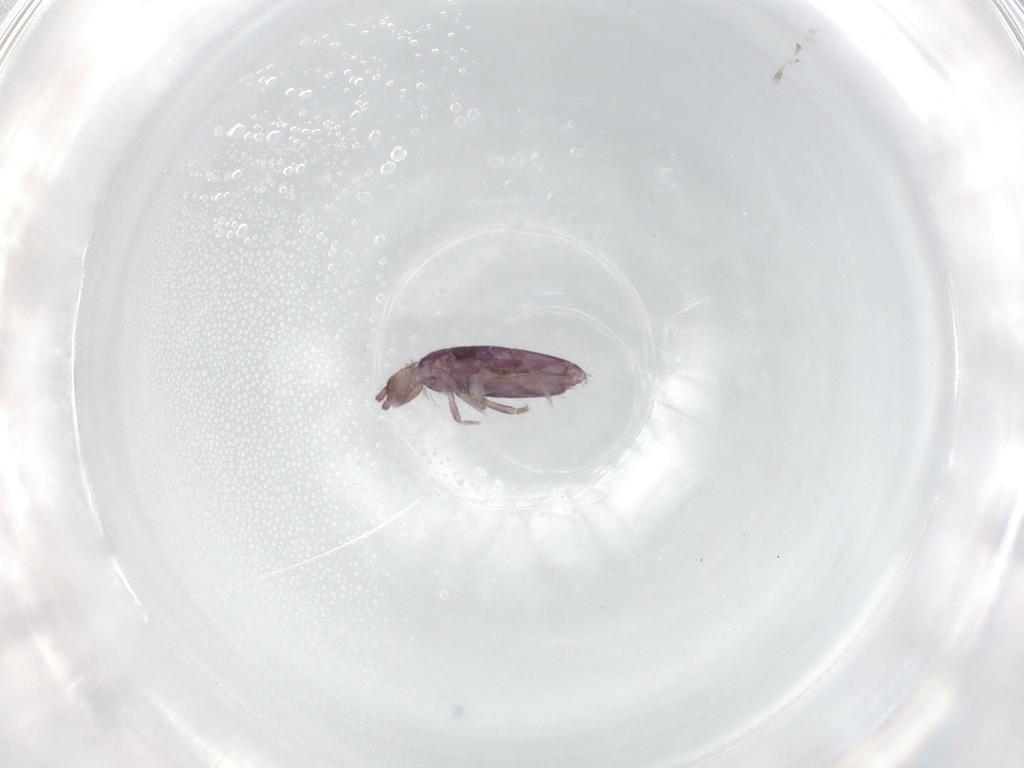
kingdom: Animalia
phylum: Arthropoda
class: Collembola
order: Entomobryomorpha
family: Entomobryidae
